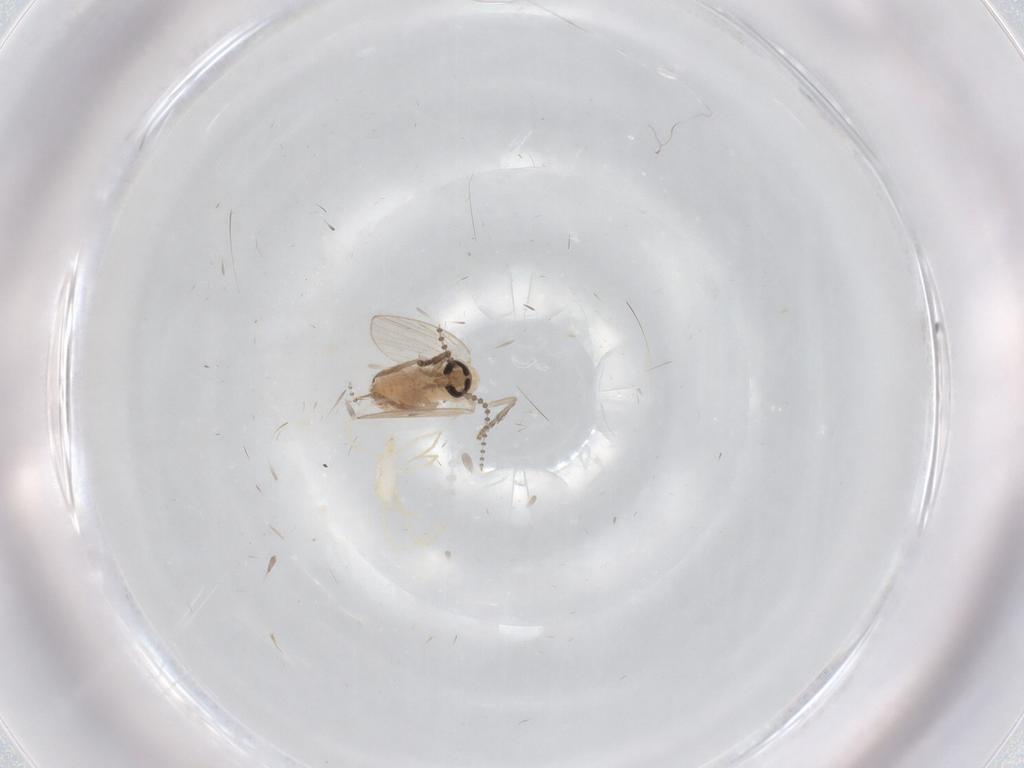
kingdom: Animalia
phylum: Arthropoda
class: Insecta
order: Diptera
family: Psychodidae
